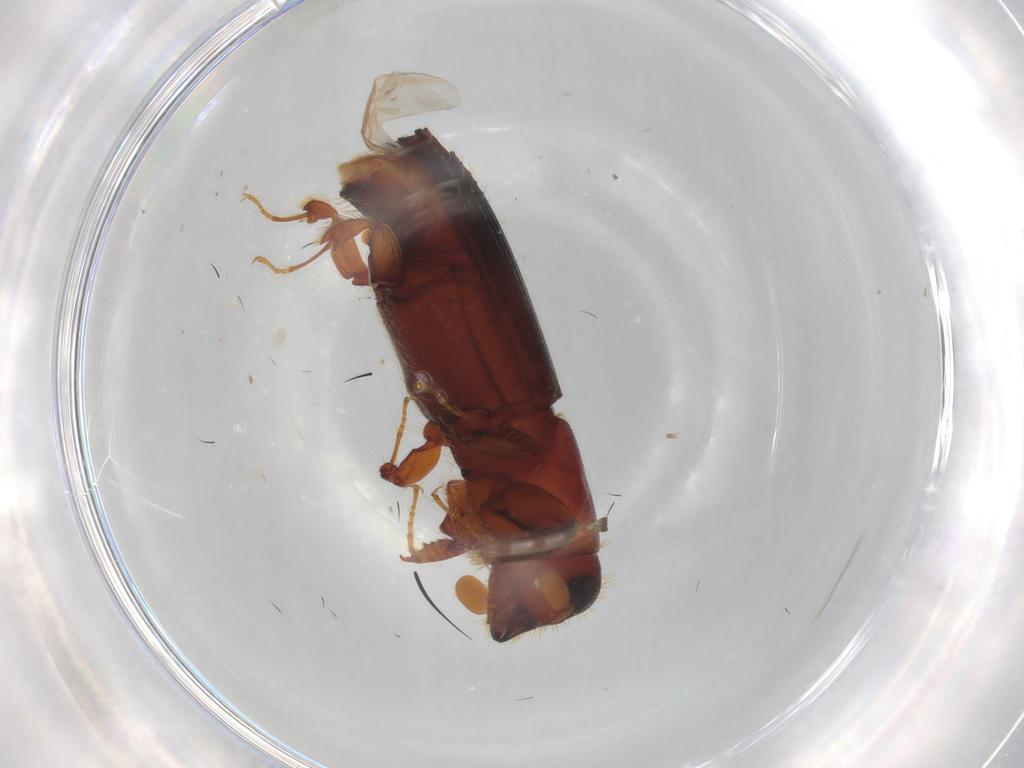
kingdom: Animalia
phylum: Arthropoda
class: Insecta
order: Coleoptera
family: Curculionidae
